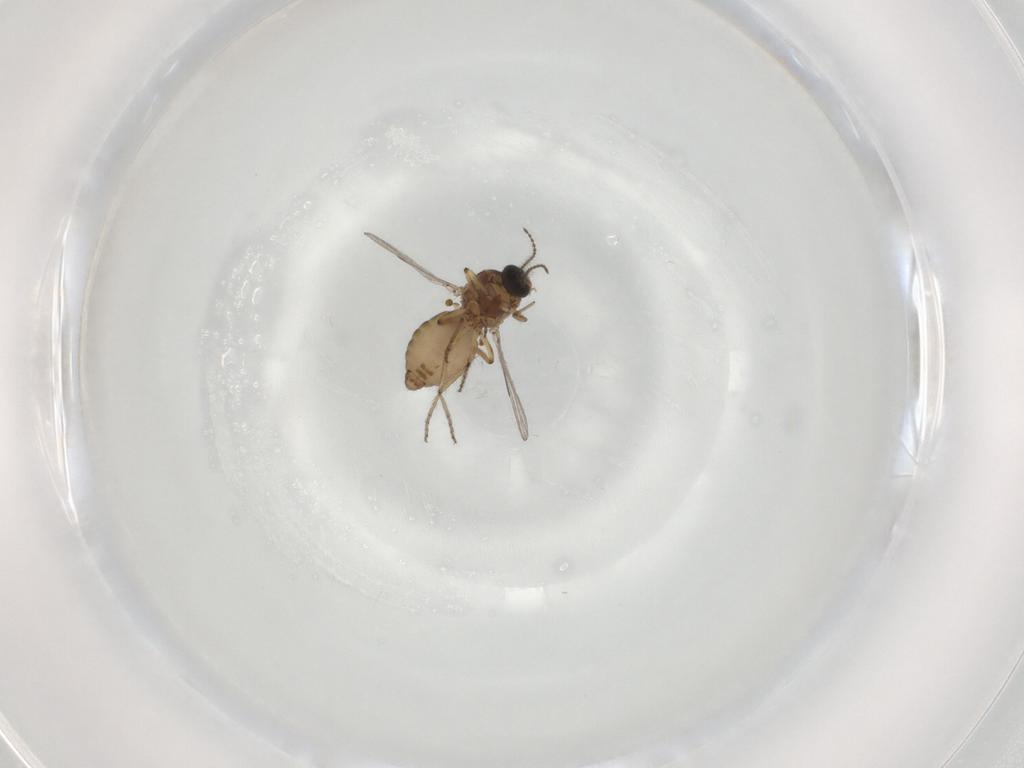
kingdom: Animalia
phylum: Arthropoda
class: Insecta
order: Diptera
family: Ceratopogonidae
